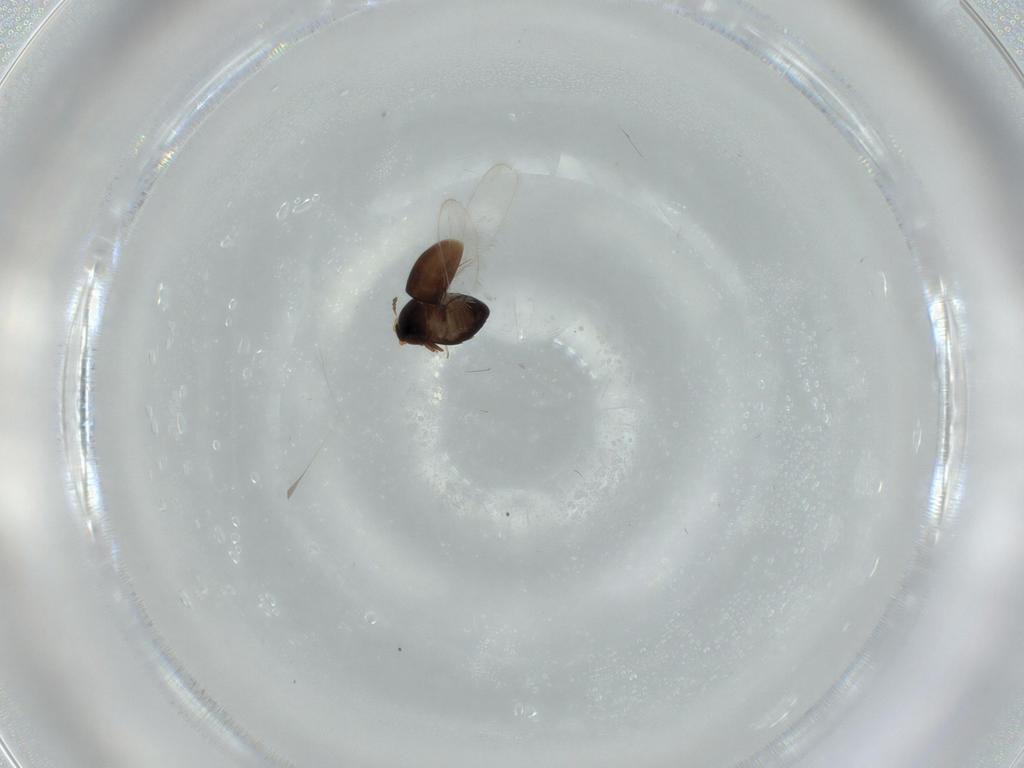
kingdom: Animalia
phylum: Arthropoda
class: Insecta
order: Coleoptera
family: Corylophidae
